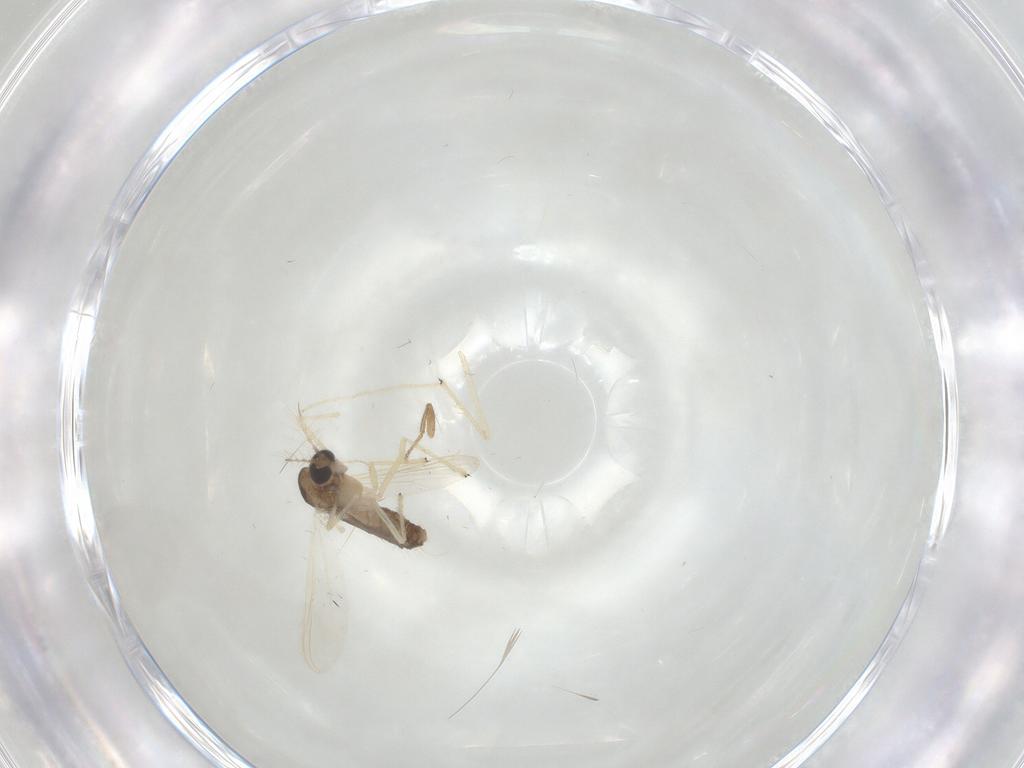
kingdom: Animalia
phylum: Arthropoda
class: Insecta
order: Diptera
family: Chironomidae
